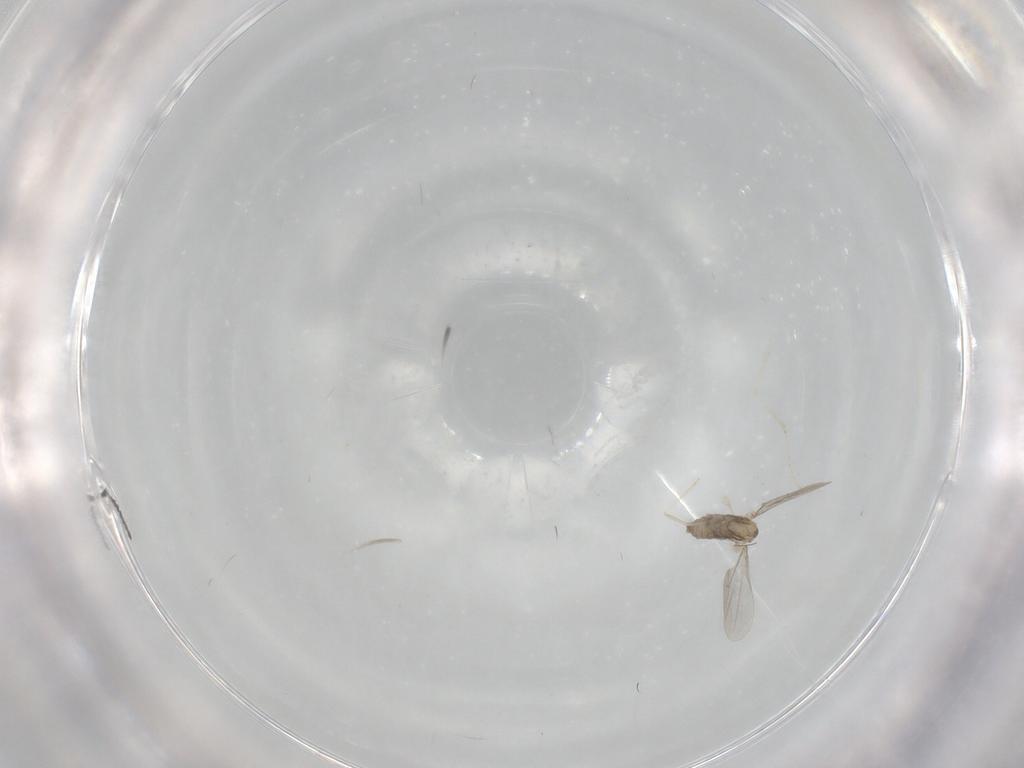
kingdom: Animalia
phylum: Arthropoda
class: Insecta
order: Diptera
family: Cecidomyiidae
